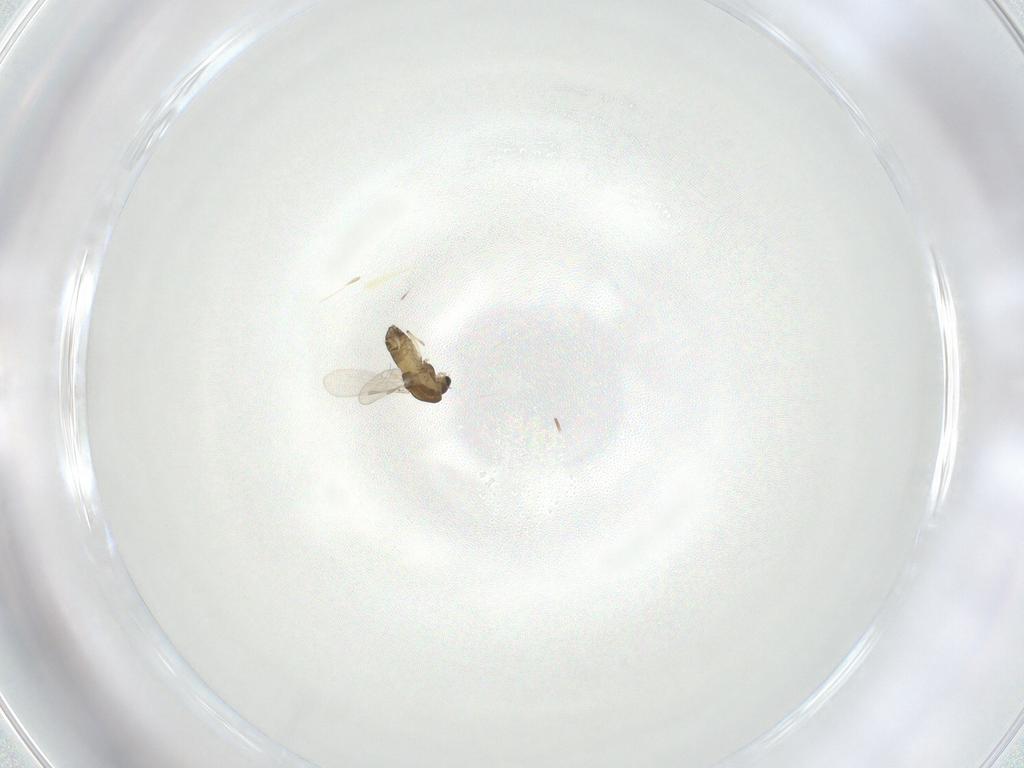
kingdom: Animalia
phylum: Arthropoda
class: Insecta
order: Diptera
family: Chironomidae
